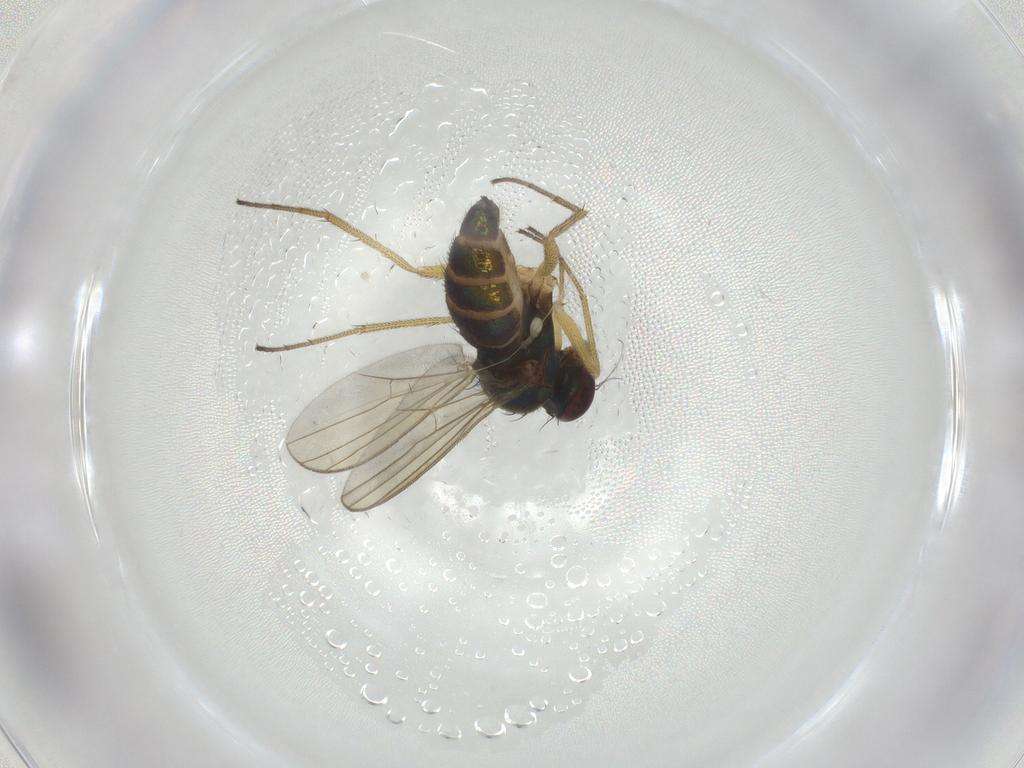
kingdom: Animalia
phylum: Arthropoda
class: Insecta
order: Diptera
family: Dolichopodidae
